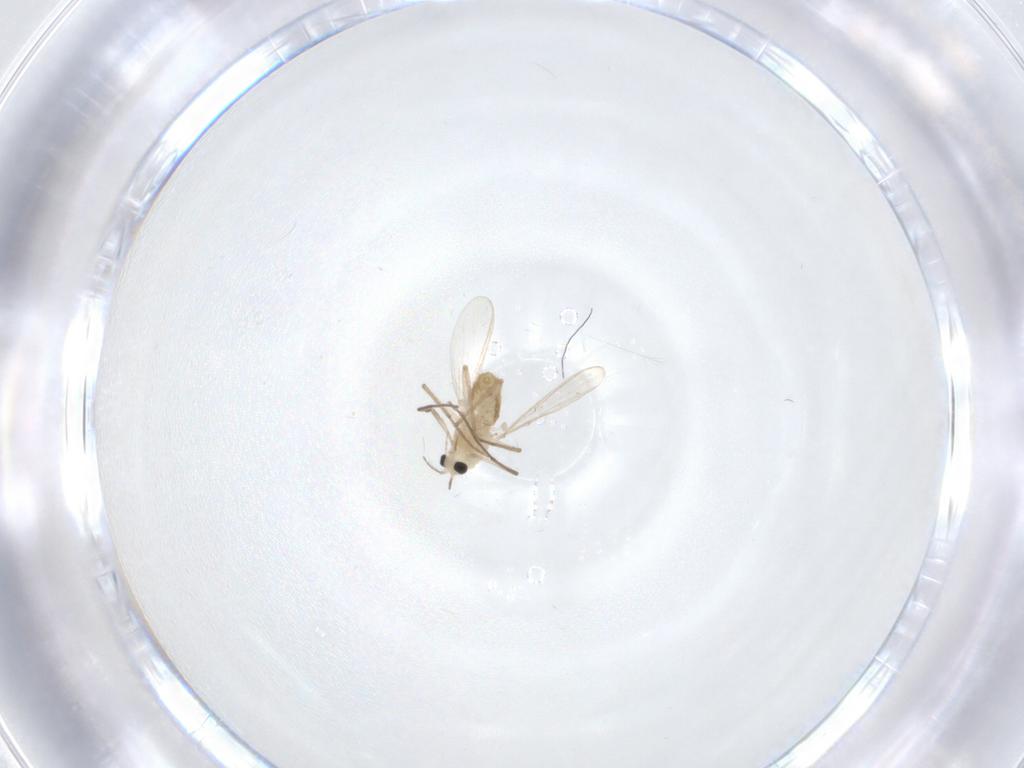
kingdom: Animalia
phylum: Arthropoda
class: Insecta
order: Diptera
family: Chironomidae
